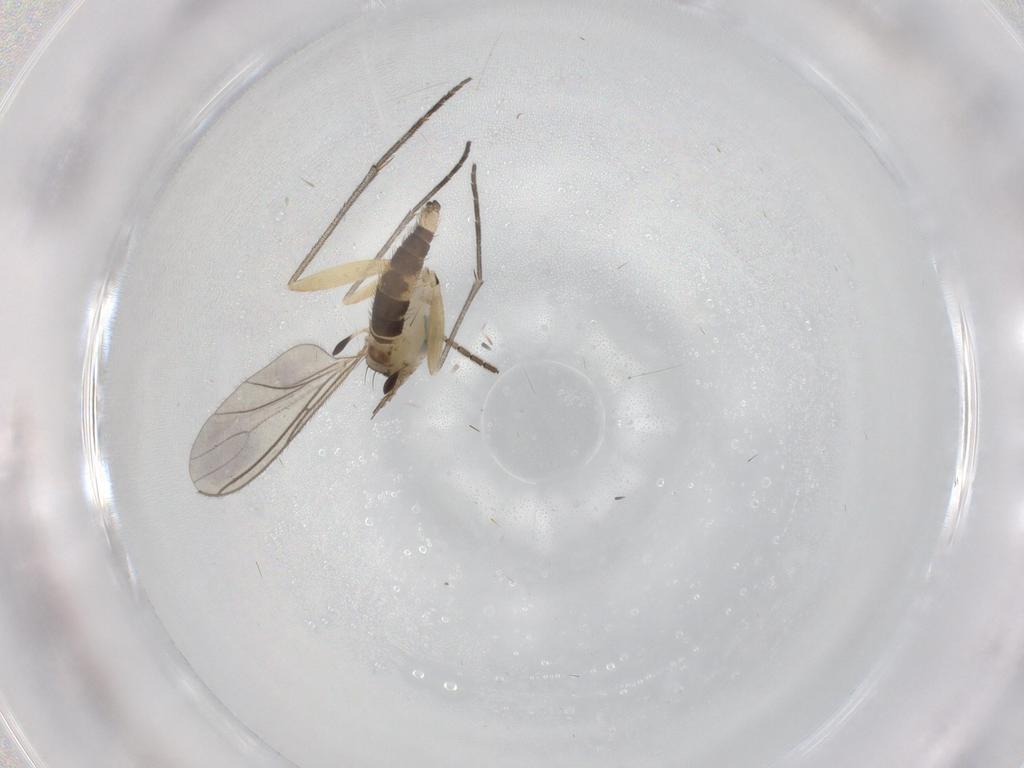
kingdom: Animalia
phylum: Arthropoda
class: Insecta
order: Diptera
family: Sciaridae
